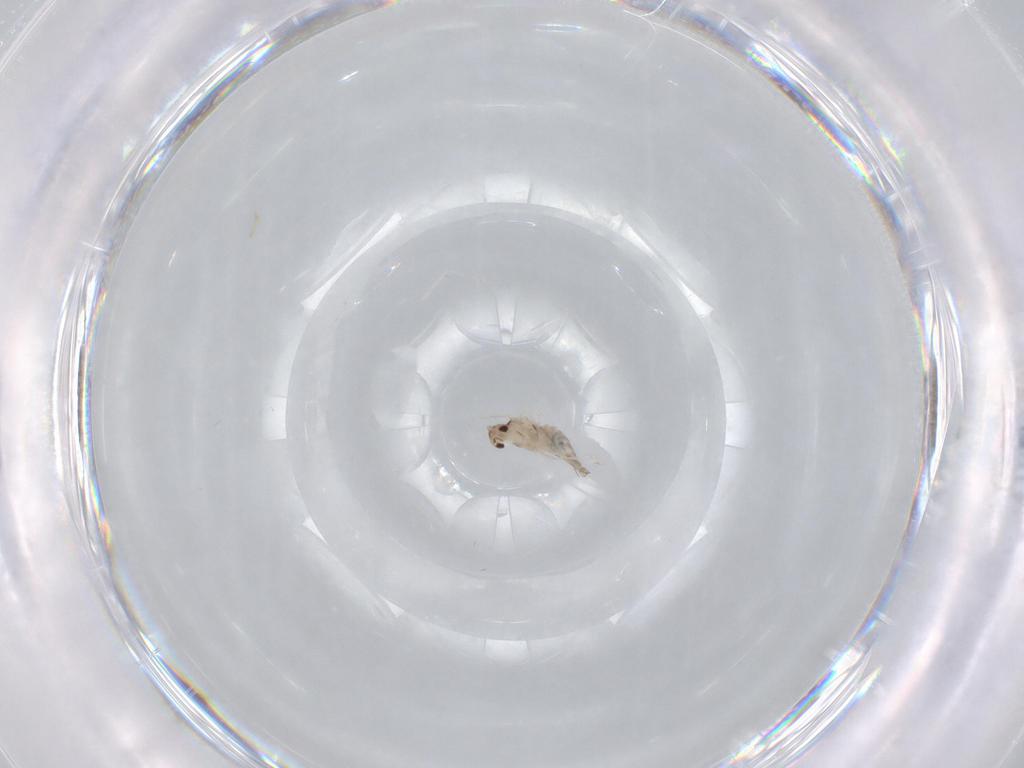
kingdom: Animalia
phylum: Arthropoda
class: Insecta
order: Diptera
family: Cecidomyiidae
